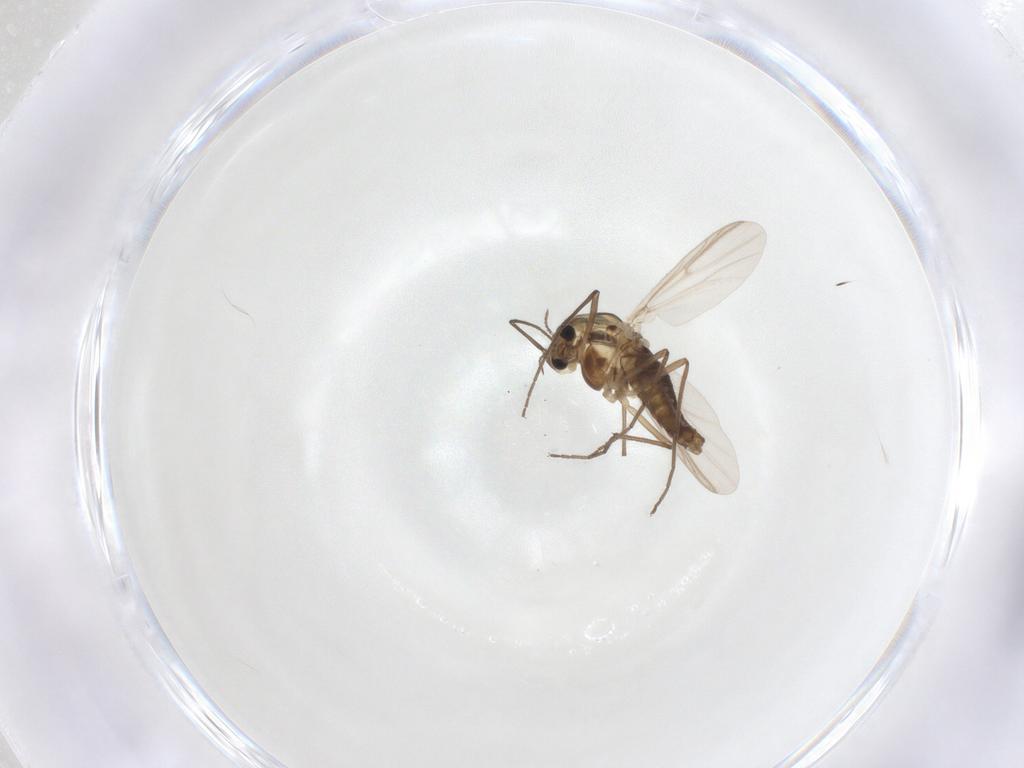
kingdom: Animalia
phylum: Arthropoda
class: Insecta
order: Diptera
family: Chironomidae
